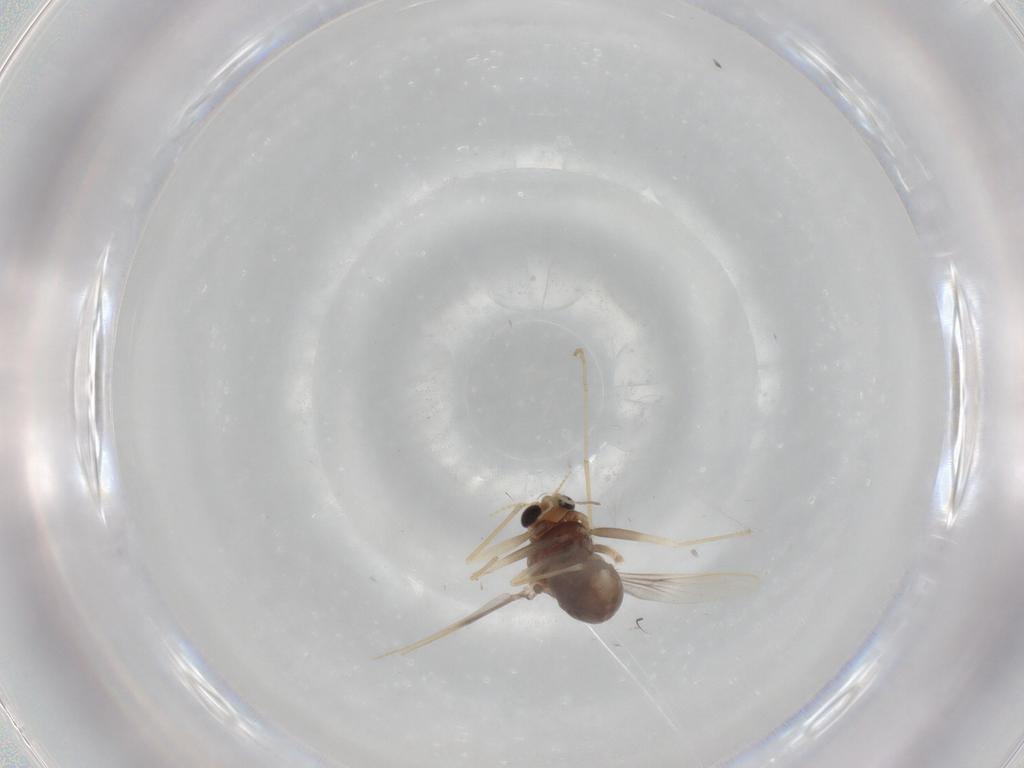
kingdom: Animalia
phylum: Arthropoda
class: Insecta
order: Diptera
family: Chironomidae
